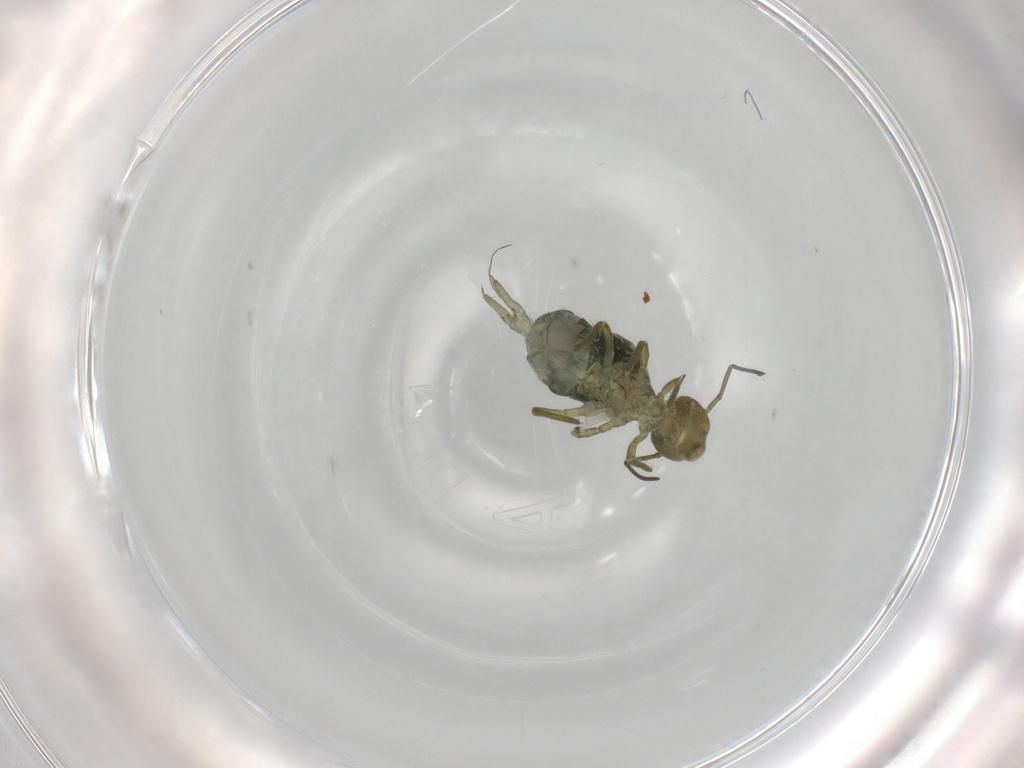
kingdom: Animalia
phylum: Arthropoda
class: Collembola
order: Symphypleona
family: Sminthuridae
